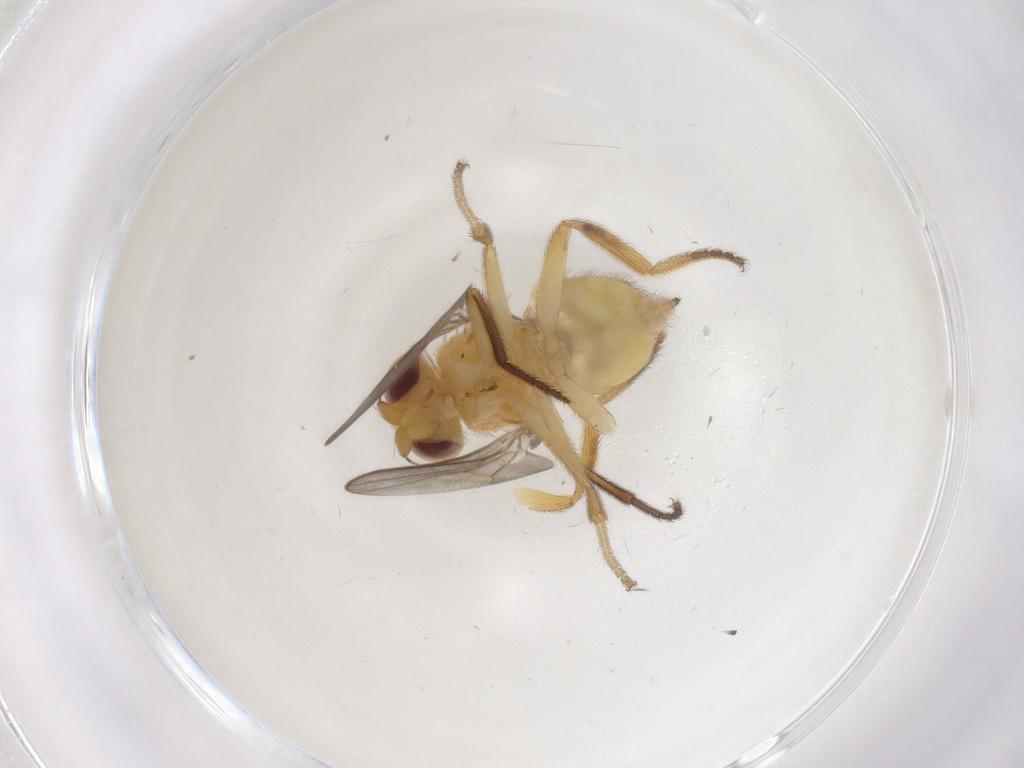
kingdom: Animalia
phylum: Arthropoda
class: Insecta
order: Diptera
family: Chloropidae
